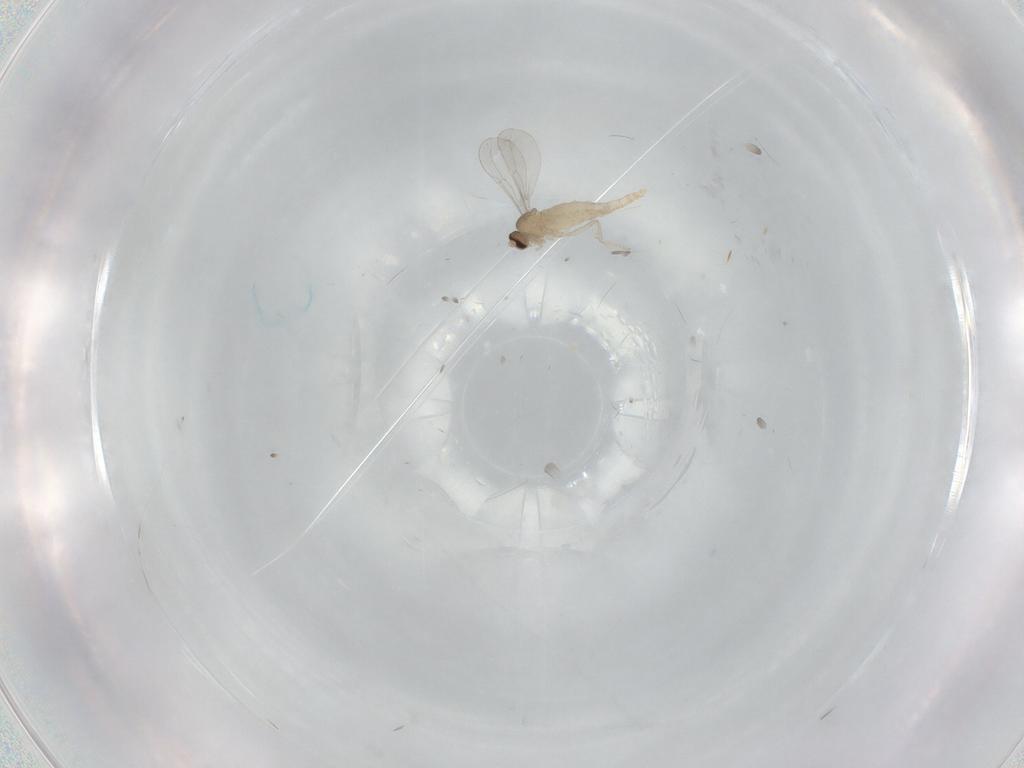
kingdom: Animalia
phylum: Arthropoda
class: Insecta
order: Diptera
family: Cecidomyiidae
